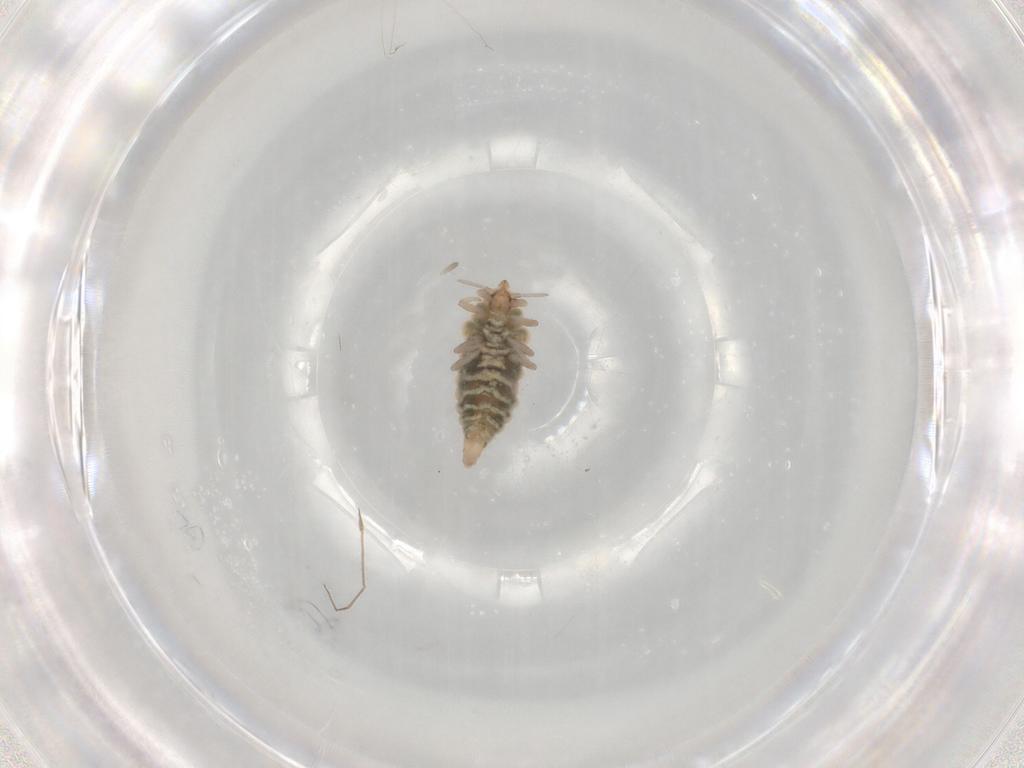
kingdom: Animalia
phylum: Arthropoda
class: Insecta
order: Neuroptera
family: Coniopterygidae
